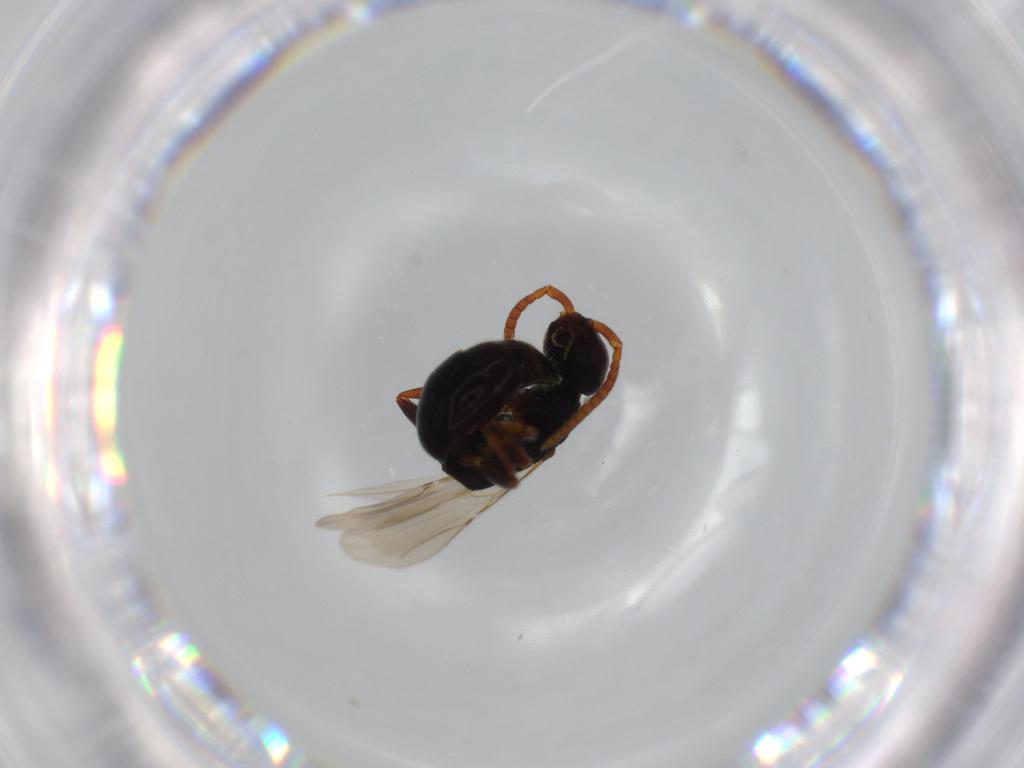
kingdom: Animalia
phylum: Arthropoda
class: Insecta
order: Hymenoptera
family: Bethylidae
